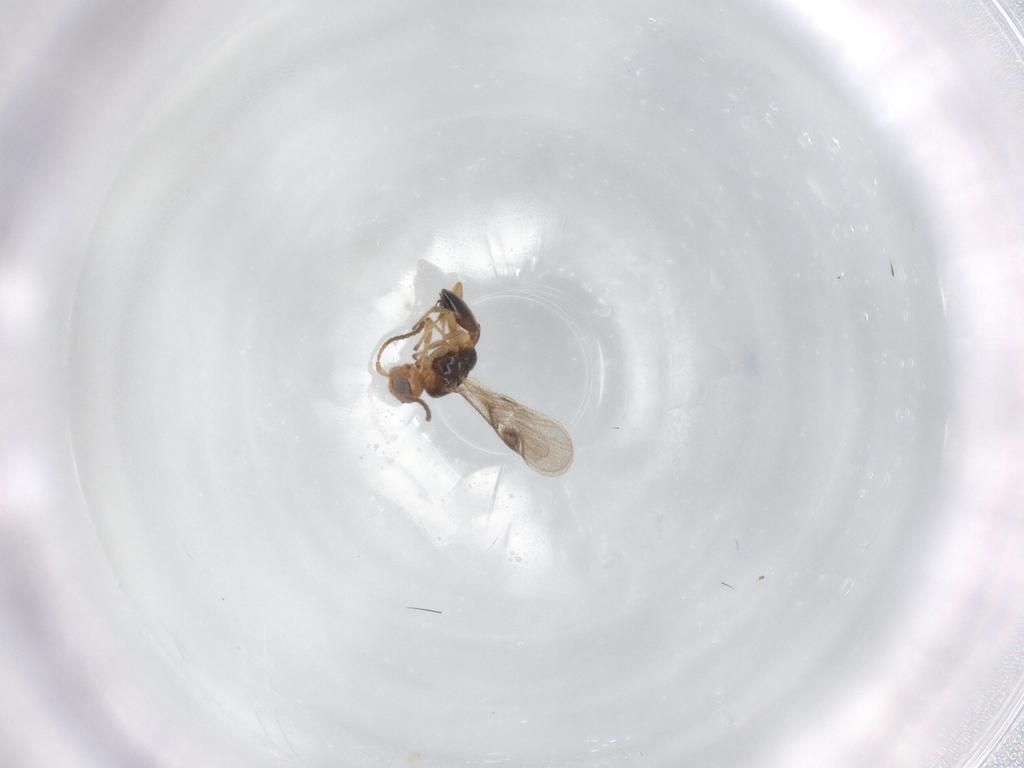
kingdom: Animalia
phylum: Arthropoda
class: Insecta
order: Hymenoptera
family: Braconidae
